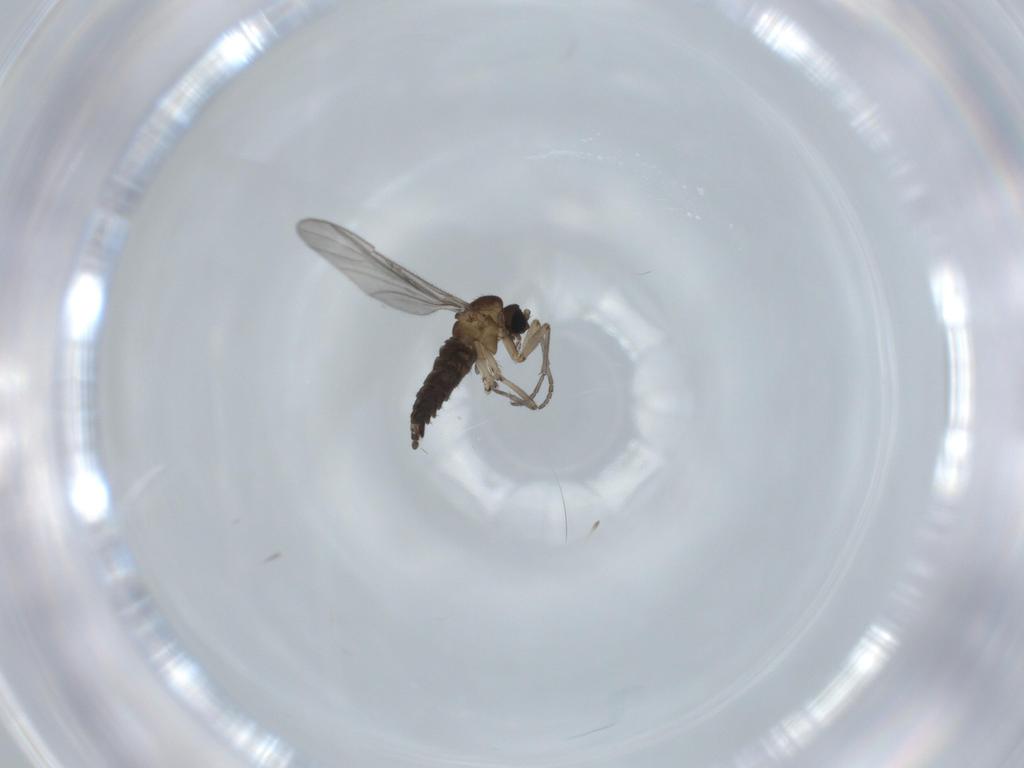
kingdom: Animalia
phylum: Arthropoda
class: Insecta
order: Diptera
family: Sciaridae
